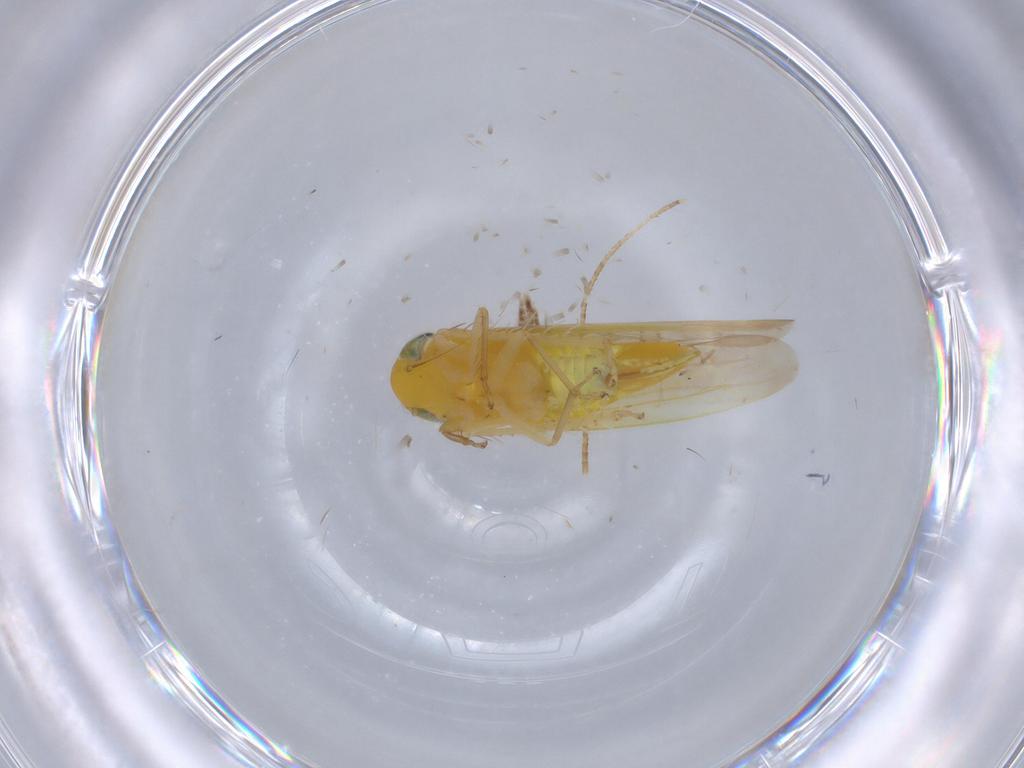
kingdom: Animalia
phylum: Arthropoda
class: Insecta
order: Hemiptera
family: Cicadellidae
